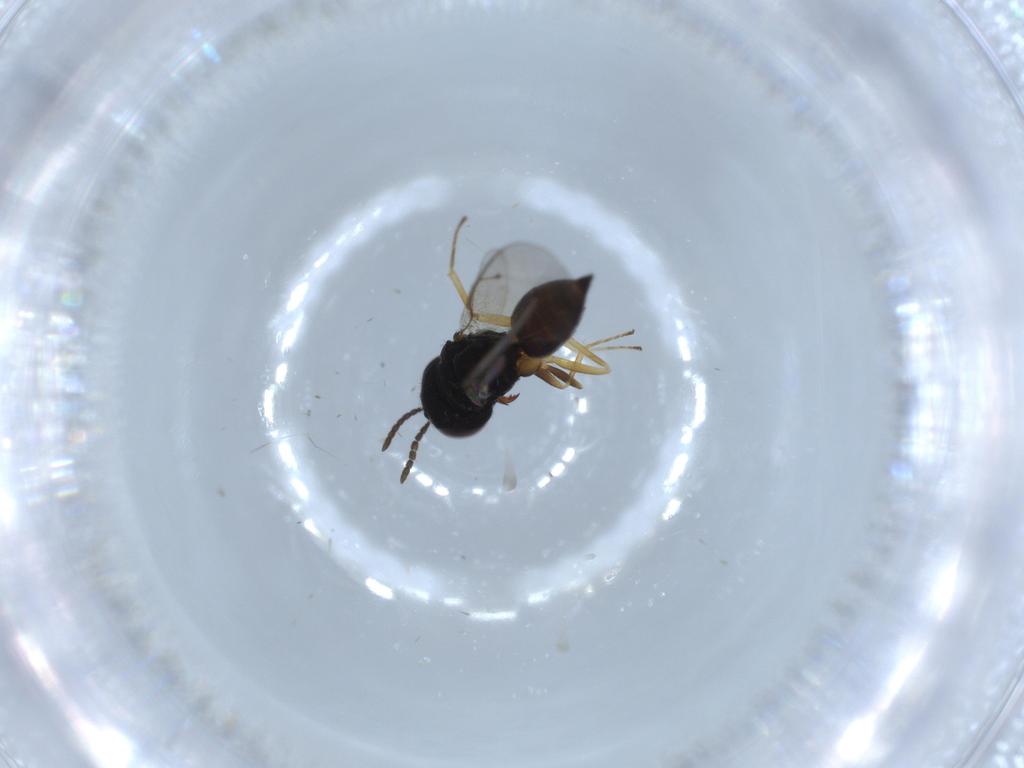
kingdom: Animalia
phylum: Arthropoda
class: Insecta
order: Hymenoptera
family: Pteromalidae
